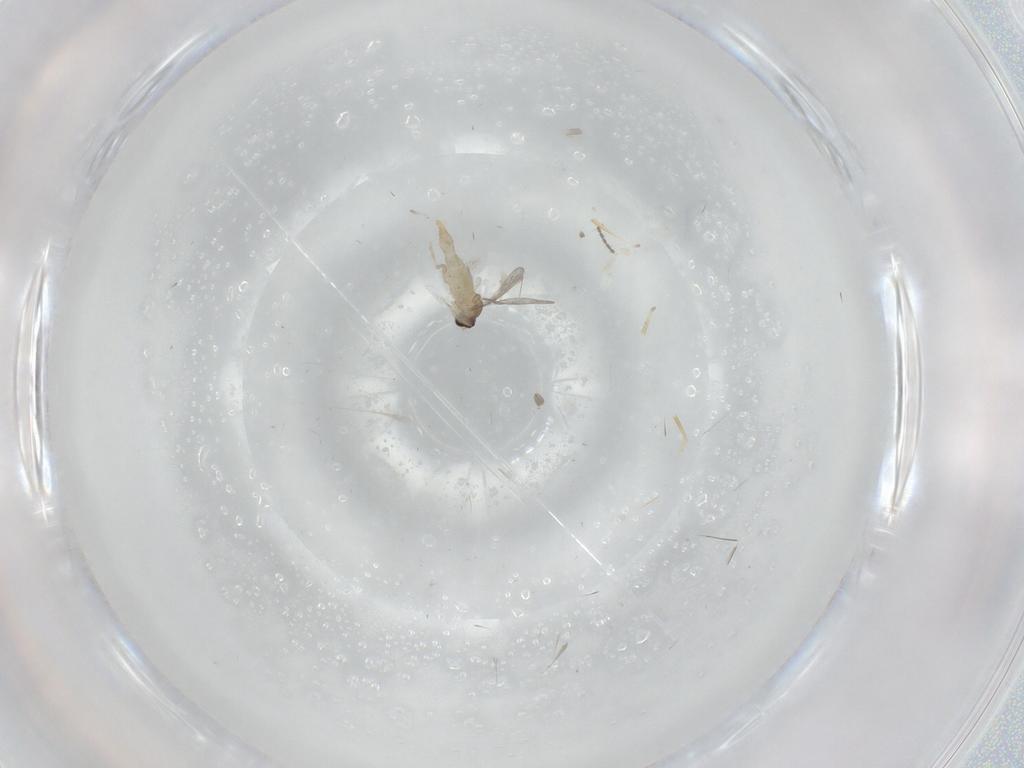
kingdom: Animalia
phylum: Arthropoda
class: Insecta
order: Diptera
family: Cecidomyiidae
